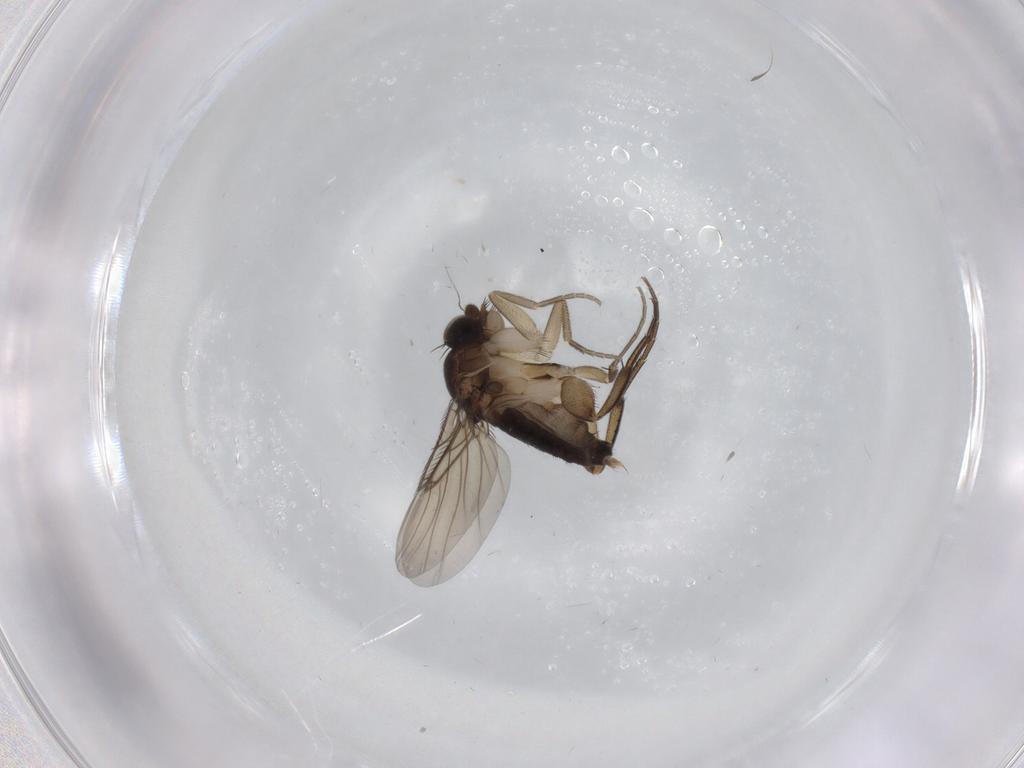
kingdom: Animalia
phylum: Arthropoda
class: Insecta
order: Diptera
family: Phoridae
